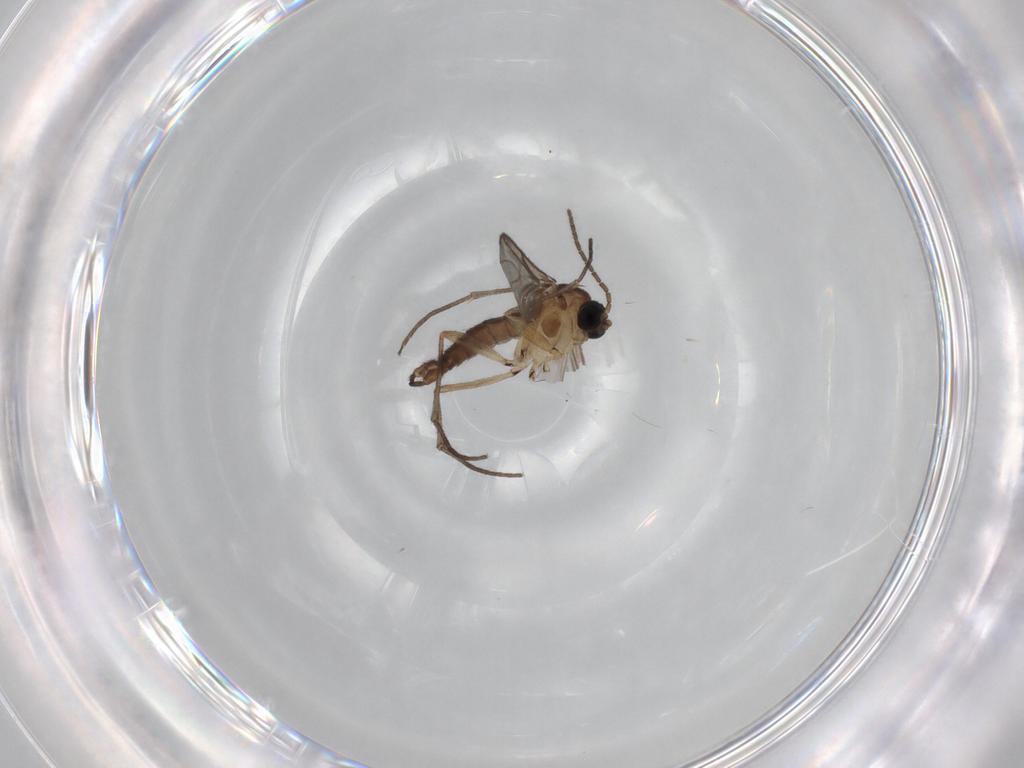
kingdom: Animalia
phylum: Arthropoda
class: Insecta
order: Diptera
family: Sciaridae
